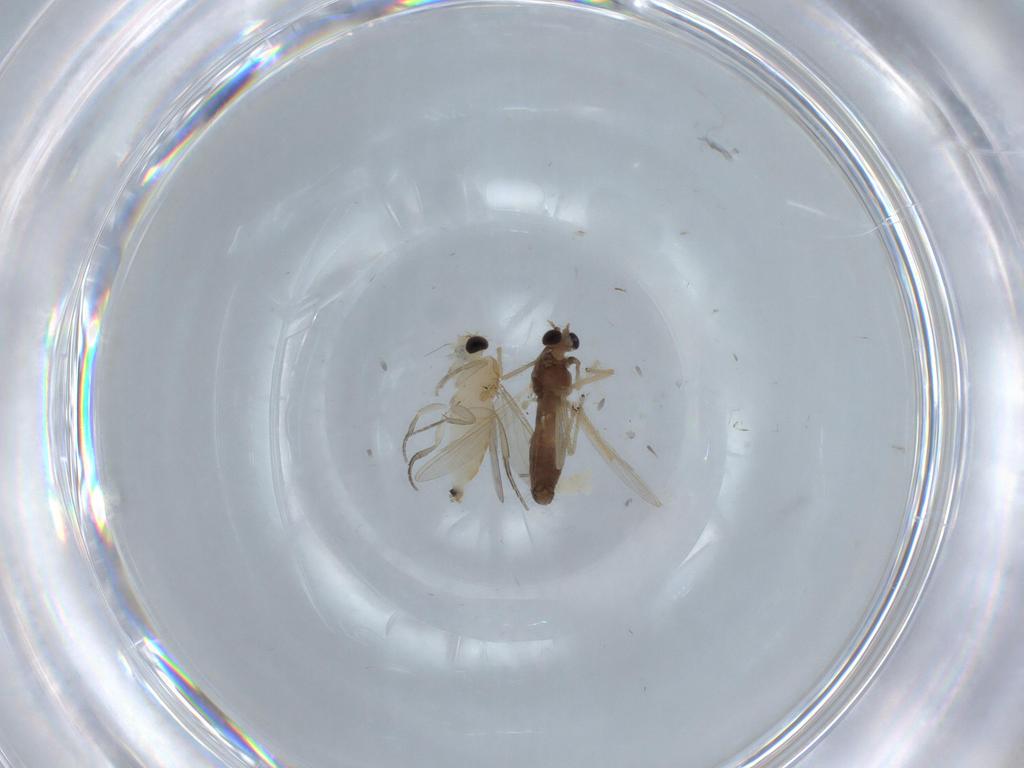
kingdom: Animalia
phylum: Arthropoda
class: Insecta
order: Diptera
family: Chironomidae
